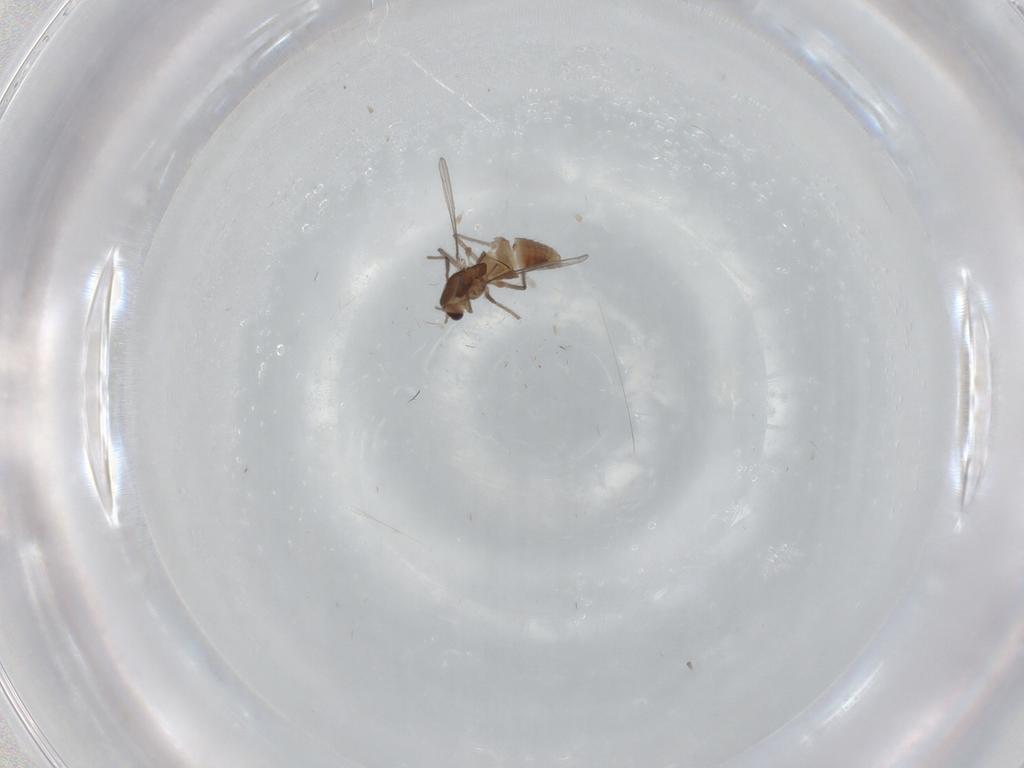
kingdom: Animalia
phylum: Arthropoda
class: Insecta
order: Diptera
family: Chironomidae
